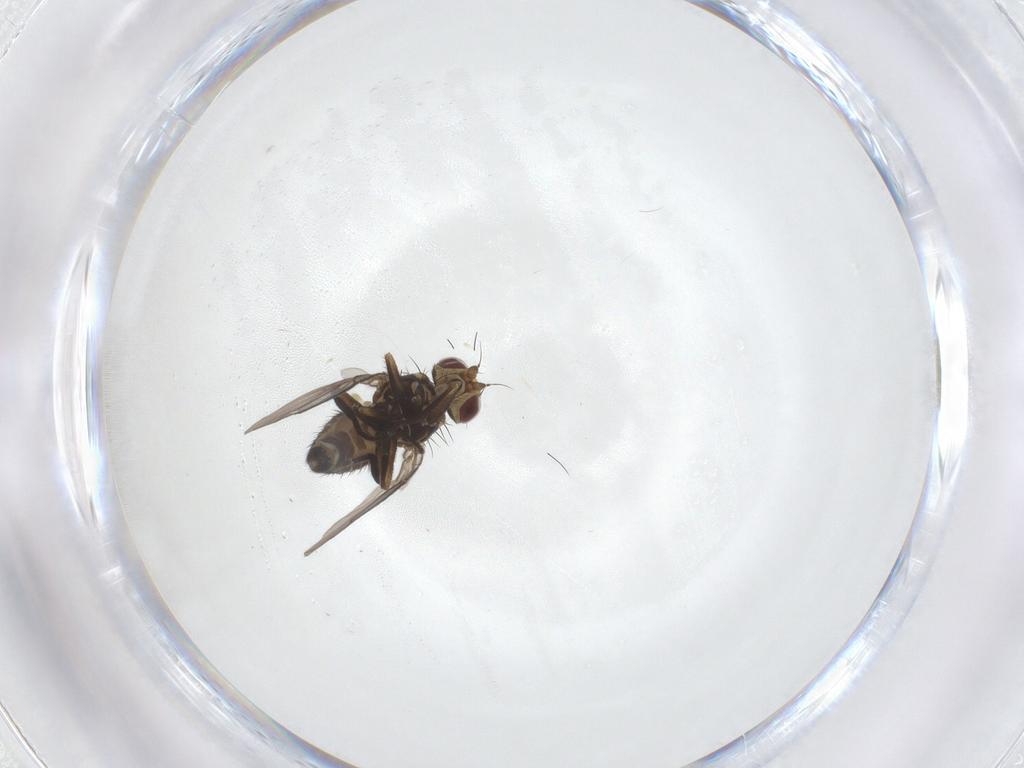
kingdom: Animalia
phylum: Arthropoda
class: Insecta
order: Diptera
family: Agromyzidae
